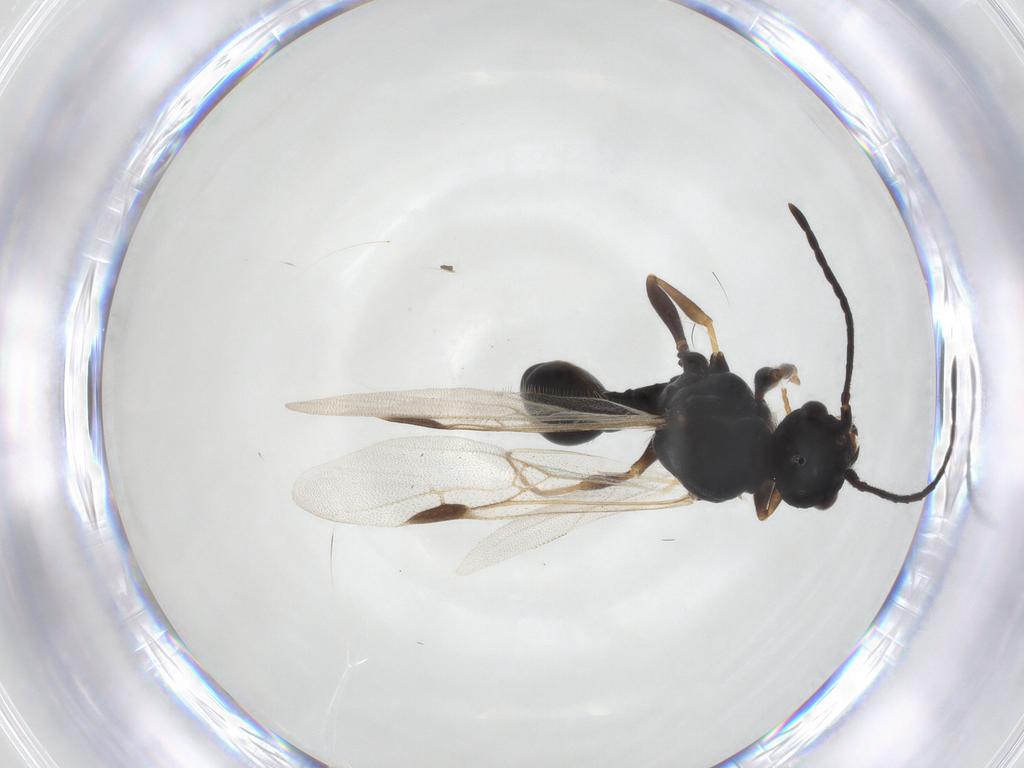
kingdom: Animalia
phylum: Arthropoda
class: Insecta
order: Hymenoptera
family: Formicidae
